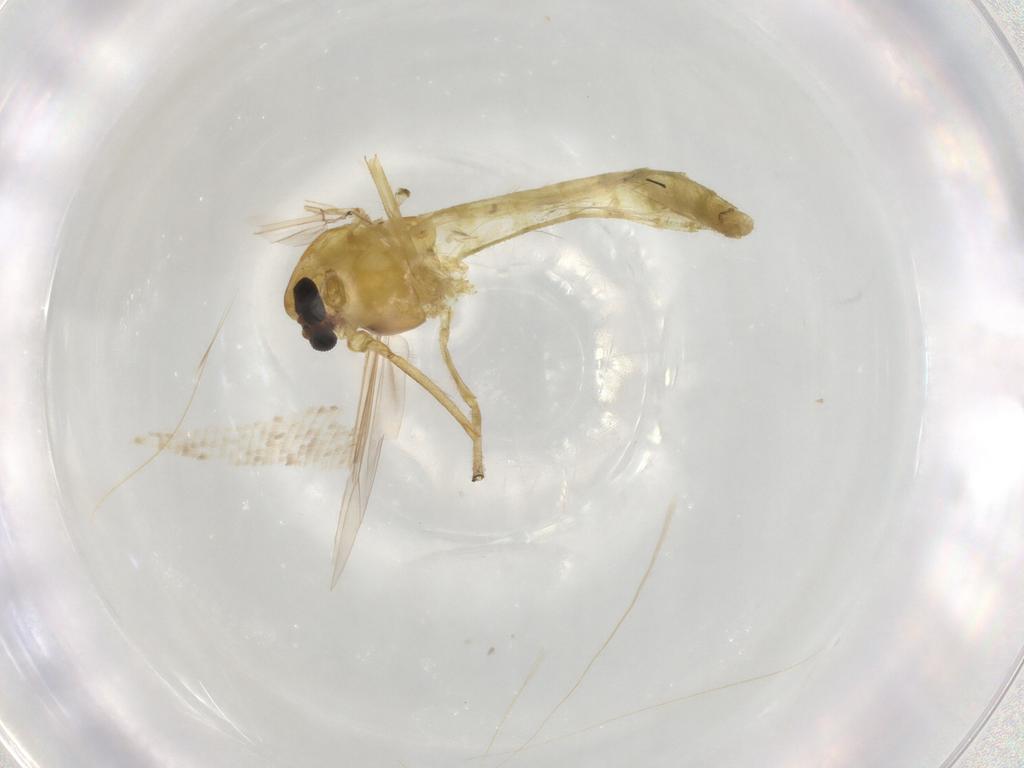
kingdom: Animalia
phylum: Arthropoda
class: Insecta
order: Diptera
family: Chironomidae
